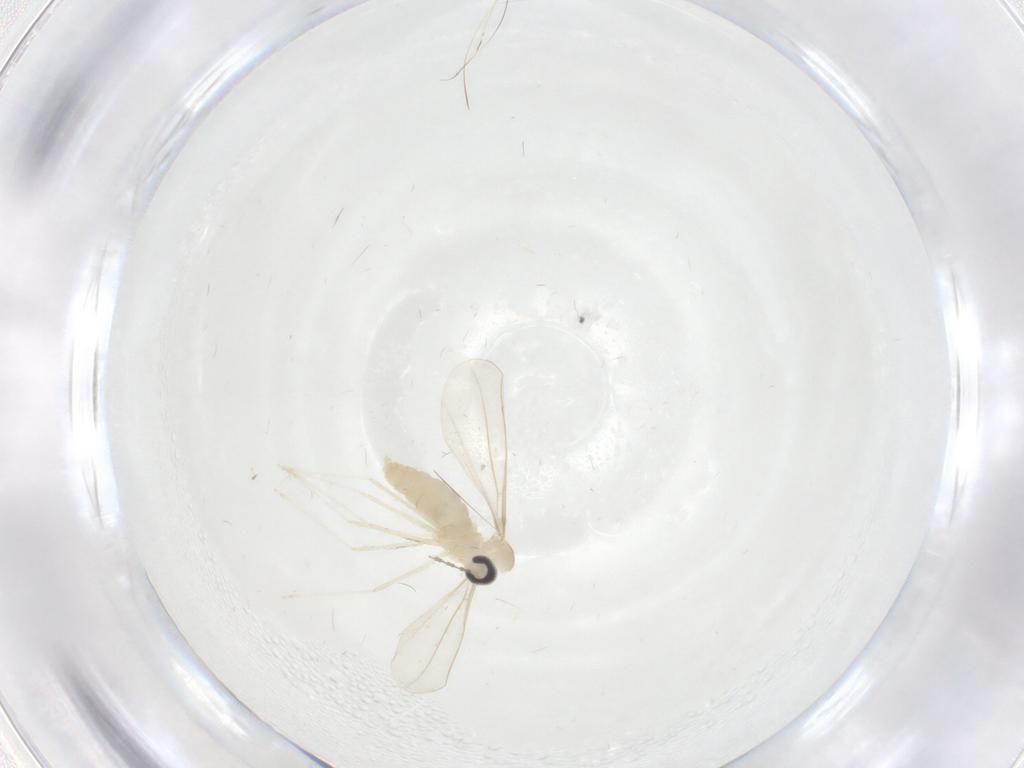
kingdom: Animalia
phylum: Arthropoda
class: Insecta
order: Diptera
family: Cecidomyiidae
